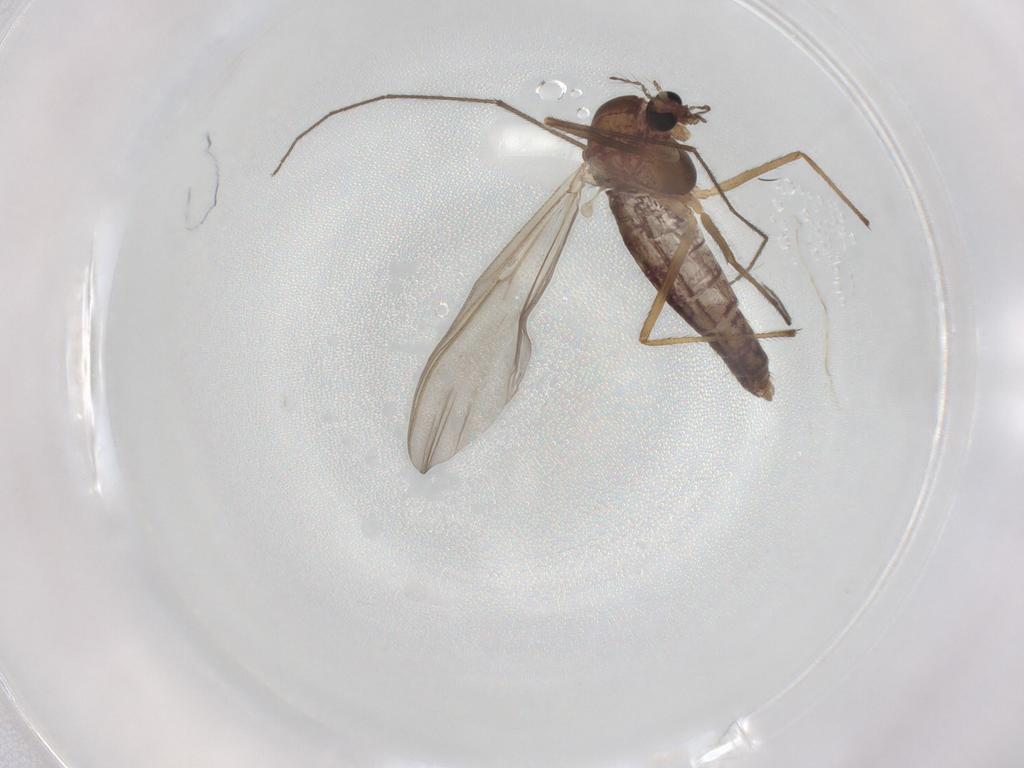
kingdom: Animalia
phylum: Arthropoda
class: Insecta
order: Diptera
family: Chironomidae
